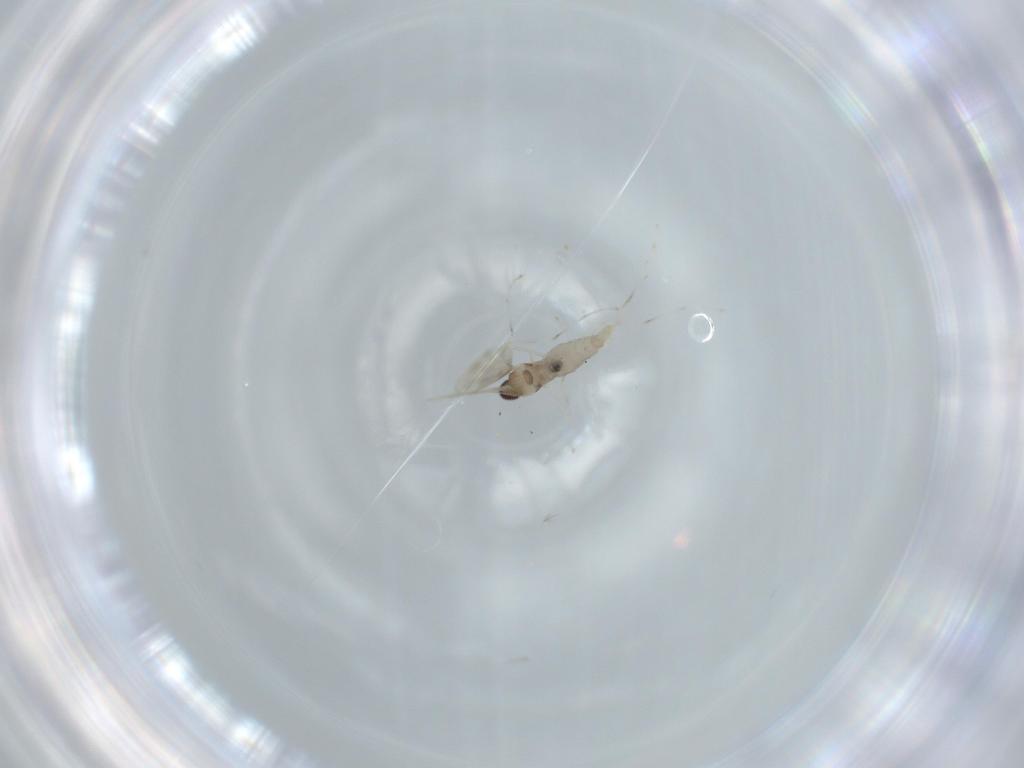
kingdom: Animalia
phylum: Arthropoda
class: Insecta
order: Diptera
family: Cecidomyiidae
